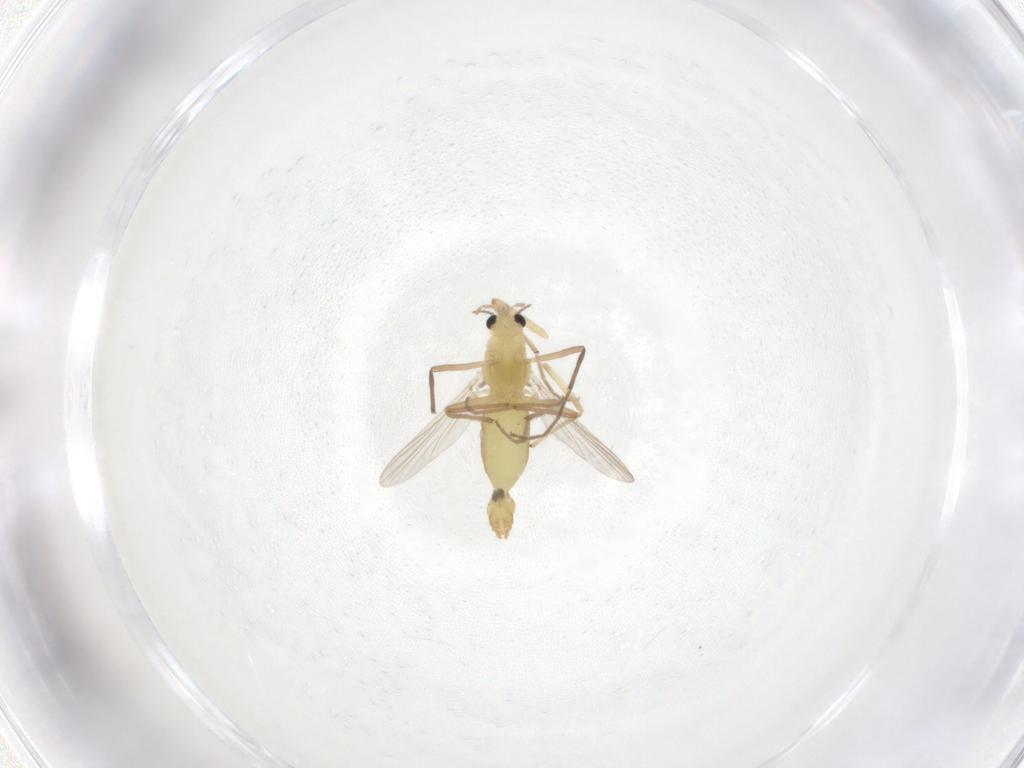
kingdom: Animalia
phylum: Arthropoda
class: Insecta
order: Diptera
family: Chironomidae
